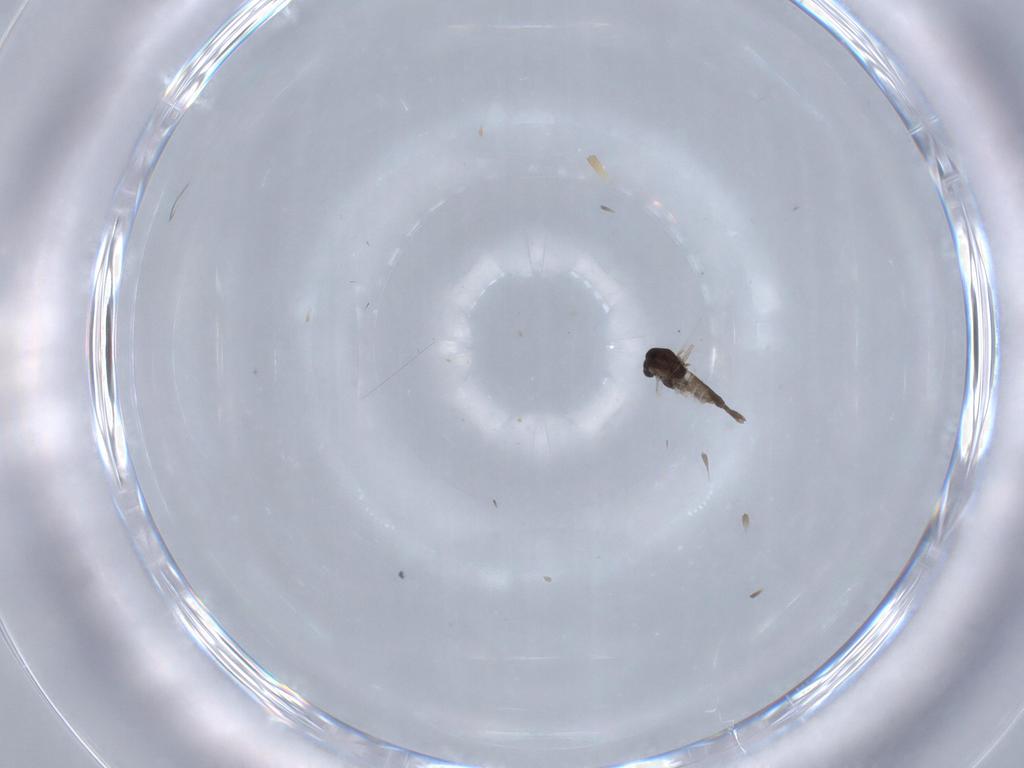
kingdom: Animalia
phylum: Arthropoda
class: Insecta
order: Diptera
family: Chironomidae
